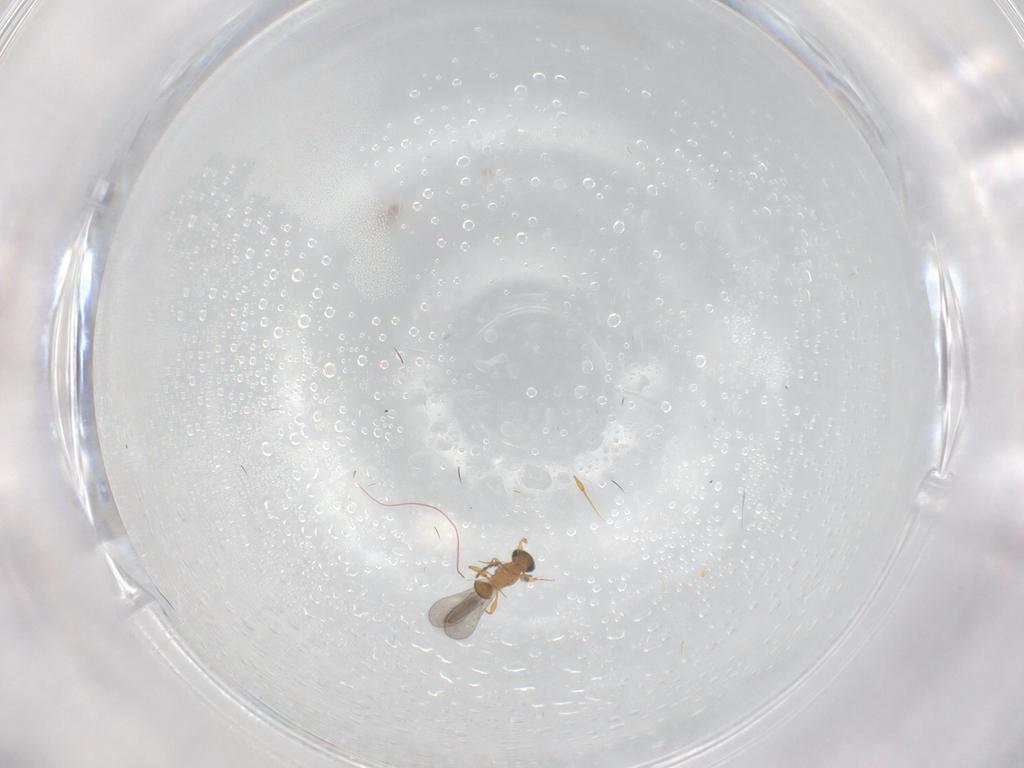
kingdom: Animalia
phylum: Arthropoda
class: Insecta
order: Hymenoptera
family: Platygastridae
